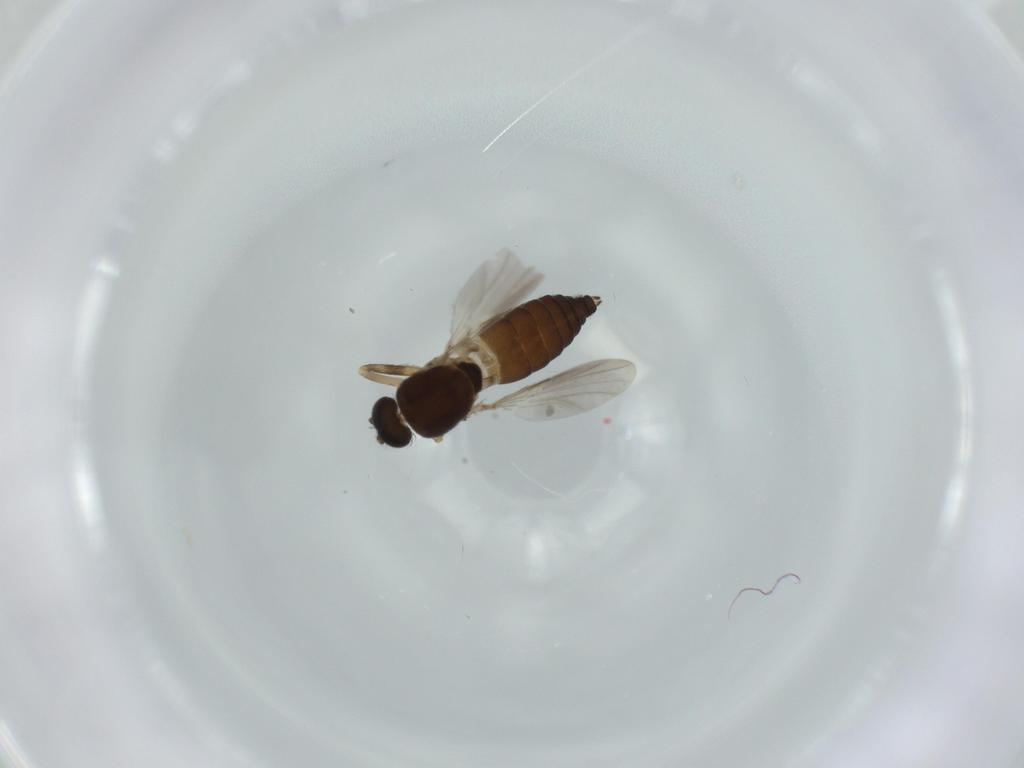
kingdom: Animalia
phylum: Arthropoda
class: Insecta
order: Diptera
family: Ceratopogonidae
